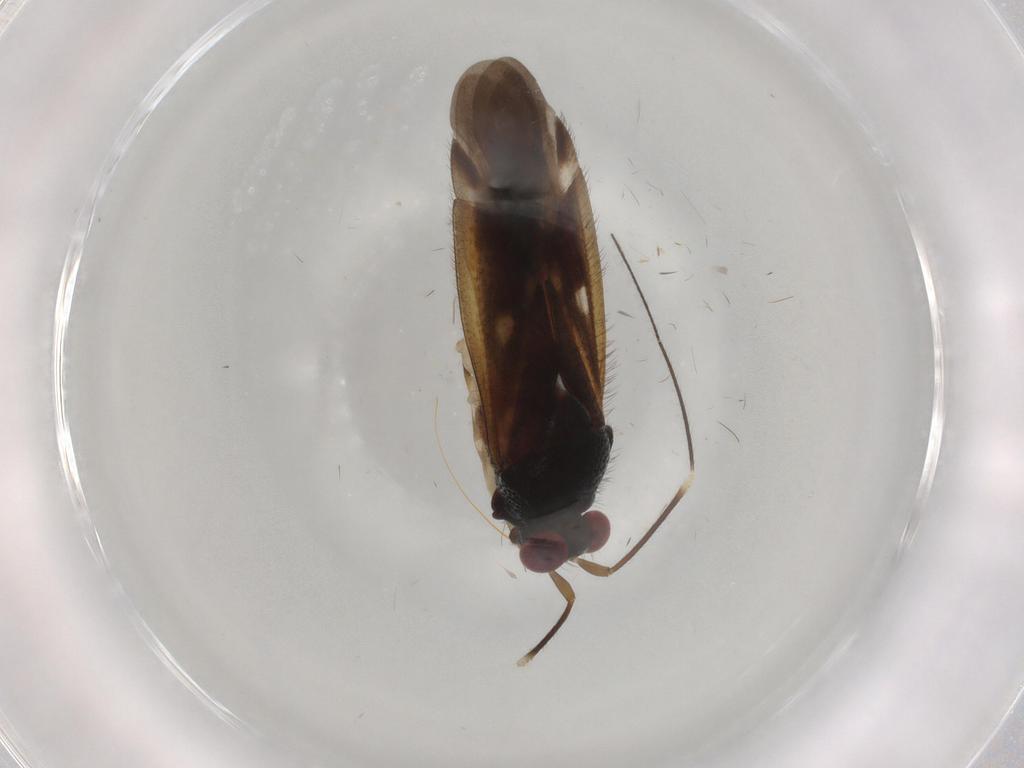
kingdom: Animalia
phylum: Arthropoda
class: Insecta
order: Hemiptera
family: Miridae
